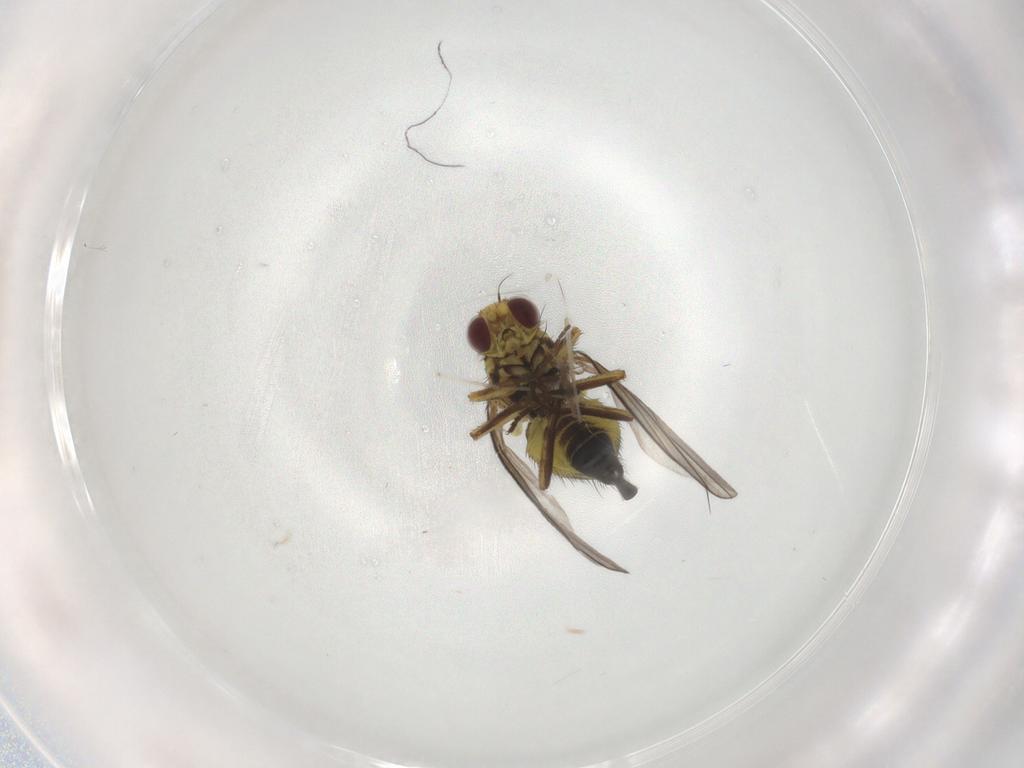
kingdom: Animalia
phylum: Arthropoda
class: Insecta
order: Diptera
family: Agromyzidae
